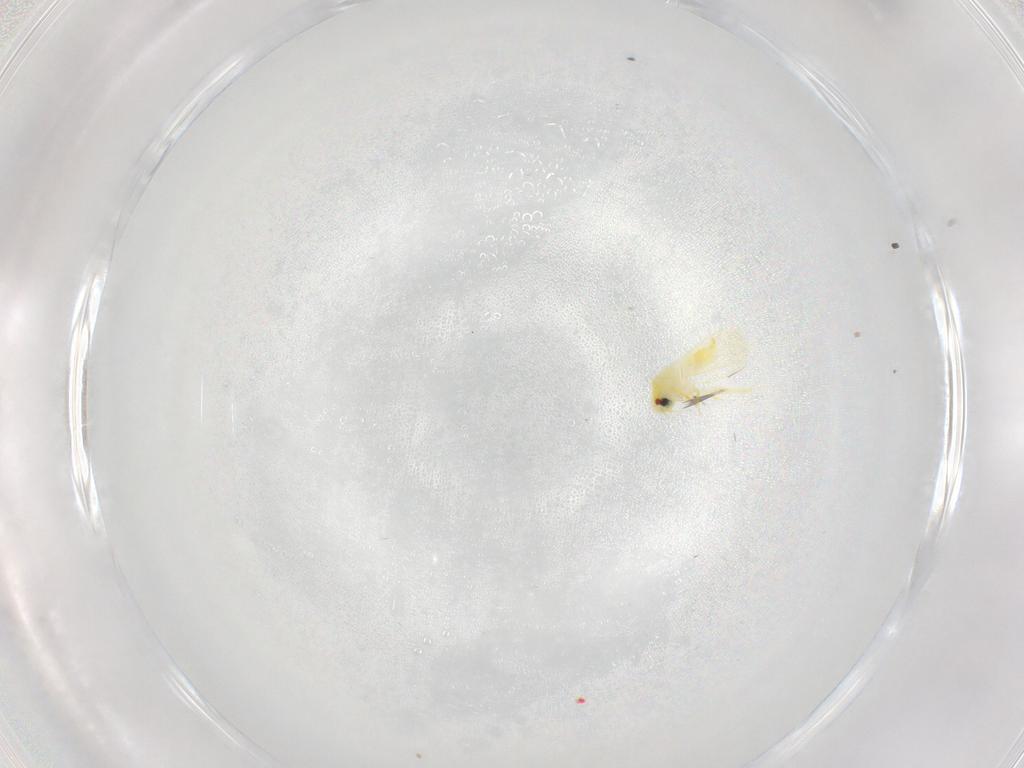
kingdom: Animalia
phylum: Arthropoda
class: Insecta
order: Hemiptera
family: Aleyrodidae
